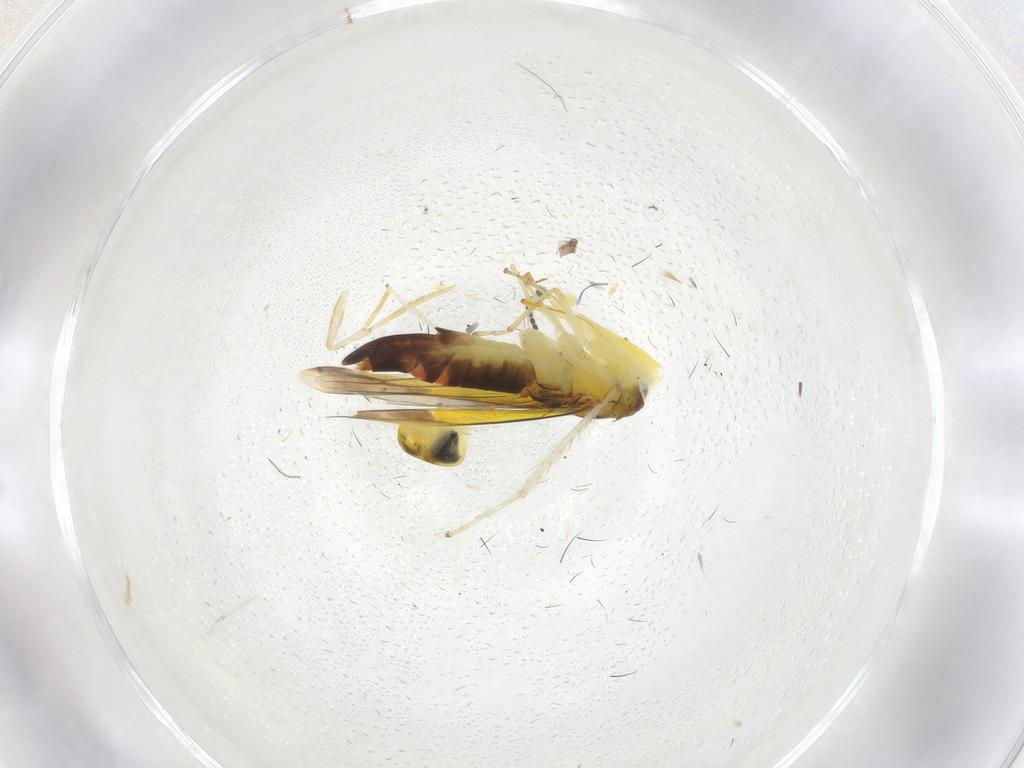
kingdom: Animalia
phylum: Arthropoda
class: Insecta
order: Hemiptera
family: Cicadellidae
